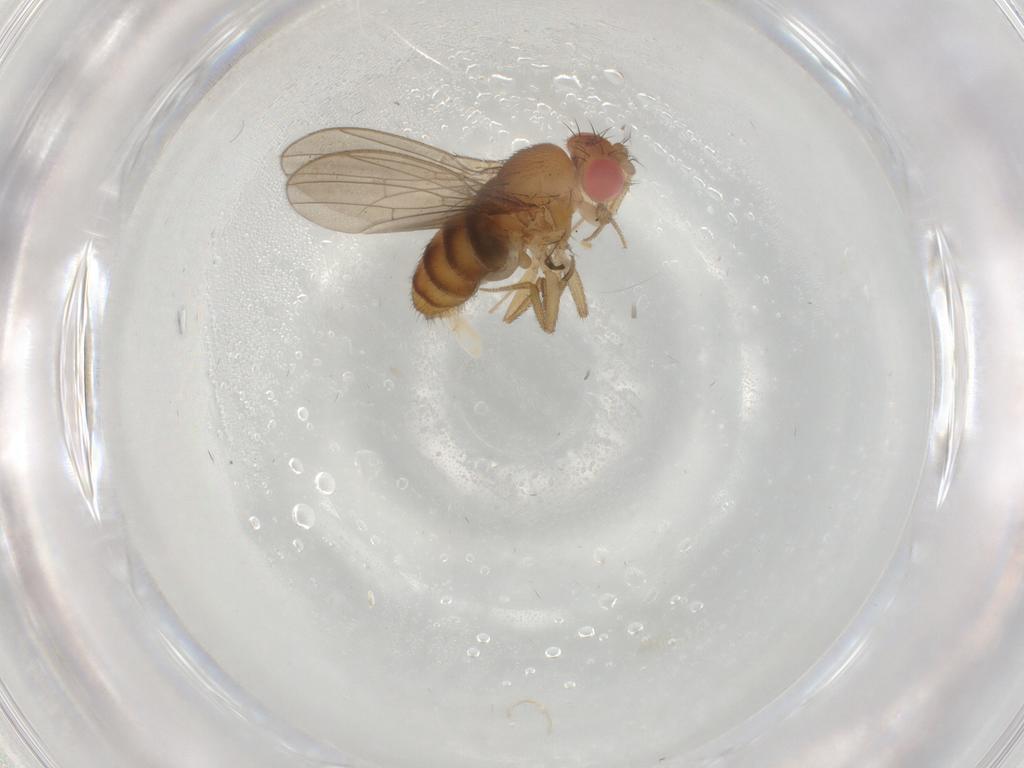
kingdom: Animalia
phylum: Arthropoda
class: Insecta
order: Diptera
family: Drosophilidae
